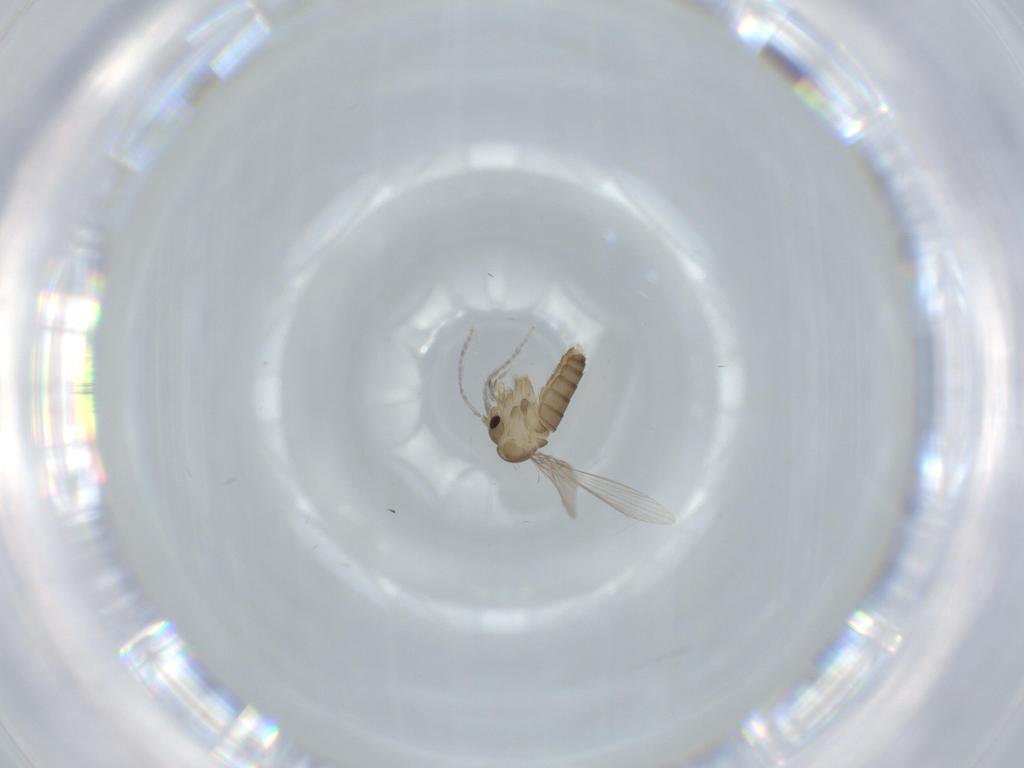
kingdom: Animalia
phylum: Arthropoda
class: Insecta
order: Diptera
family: Psychodidae
